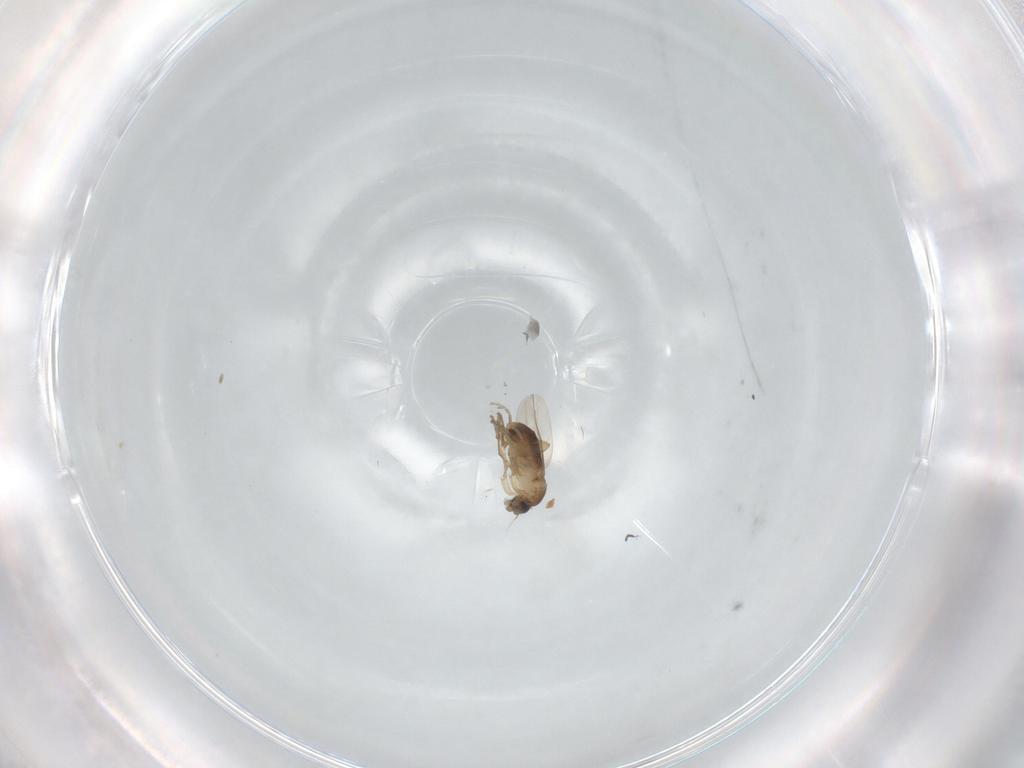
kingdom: Animalia
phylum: Arthropoda
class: Insecta
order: Diptera
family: Phoridae
